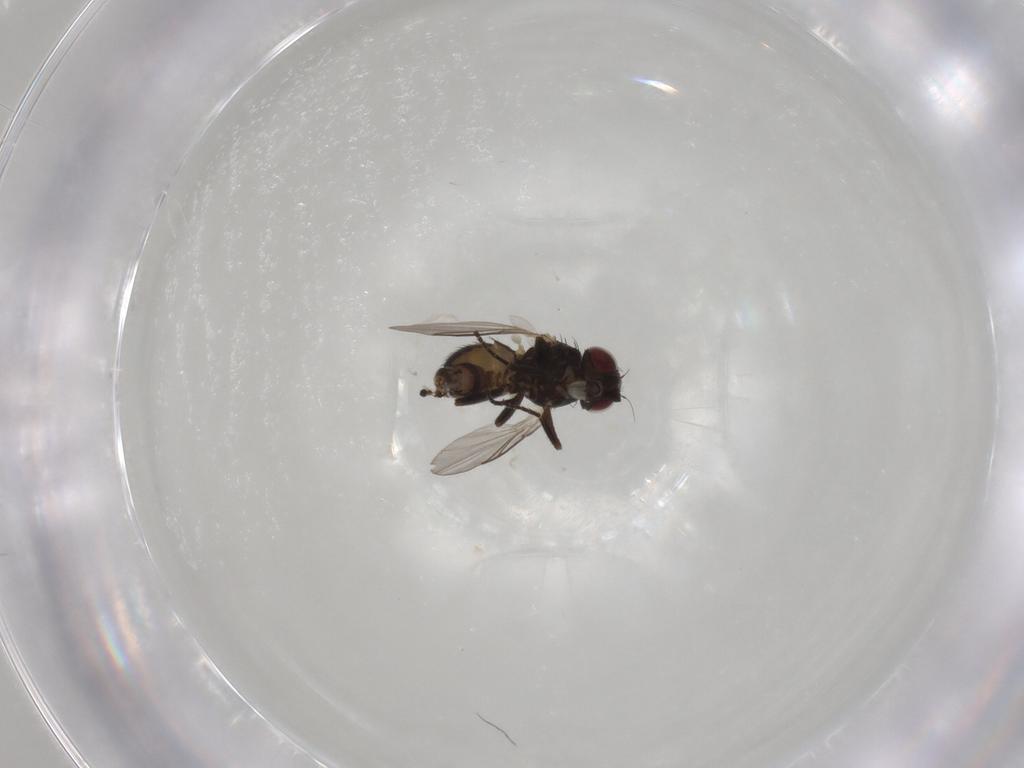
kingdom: Animalia
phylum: Arthropoda
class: Insecta
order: Diptera
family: Agromyzidae
